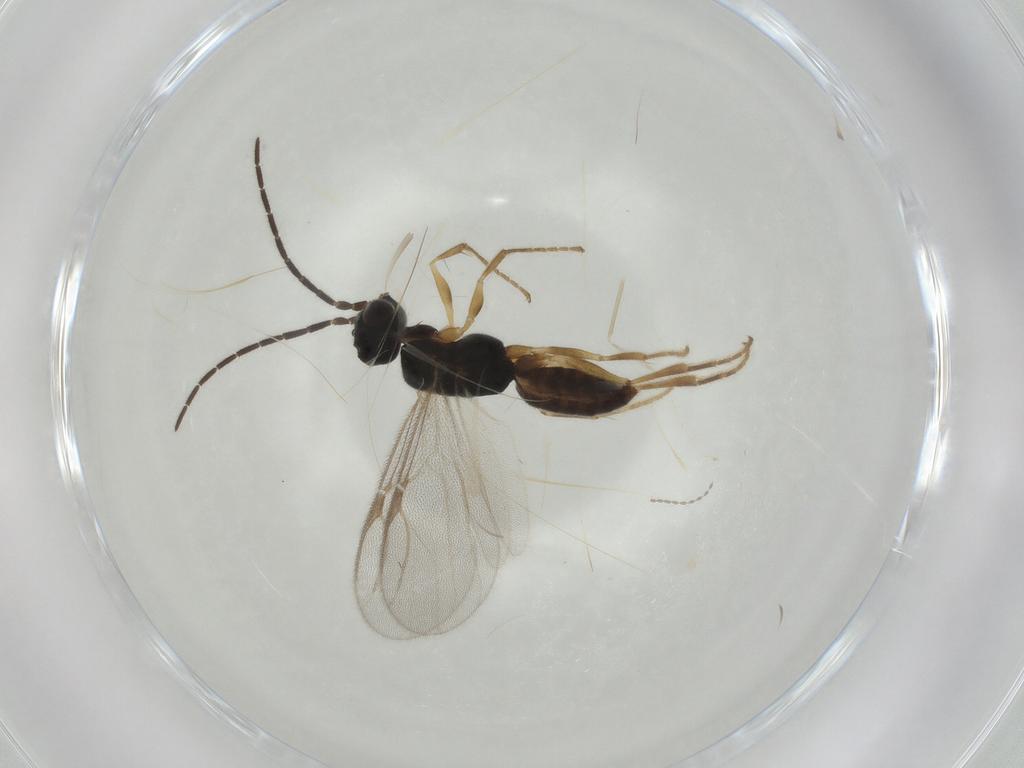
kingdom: Animalia
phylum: Arthropoda
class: Insecta
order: Hymenoptera
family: Dryinidae
